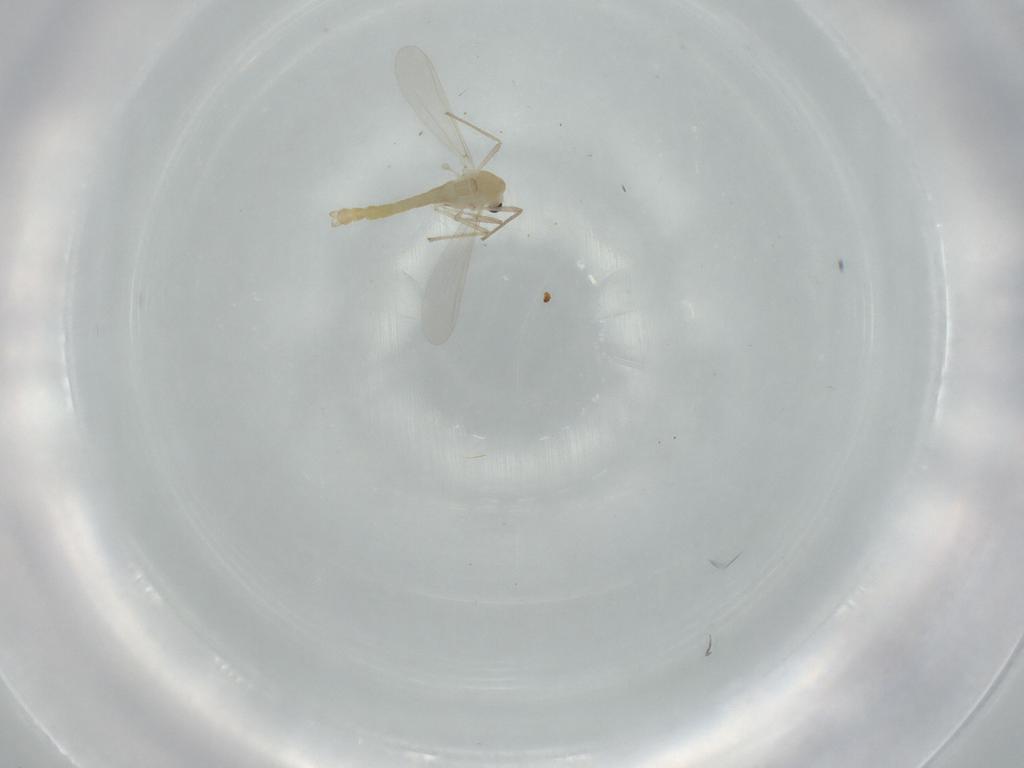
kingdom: Animalia
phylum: Arthropoda
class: Insecta
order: Diptera
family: Chironomidae
